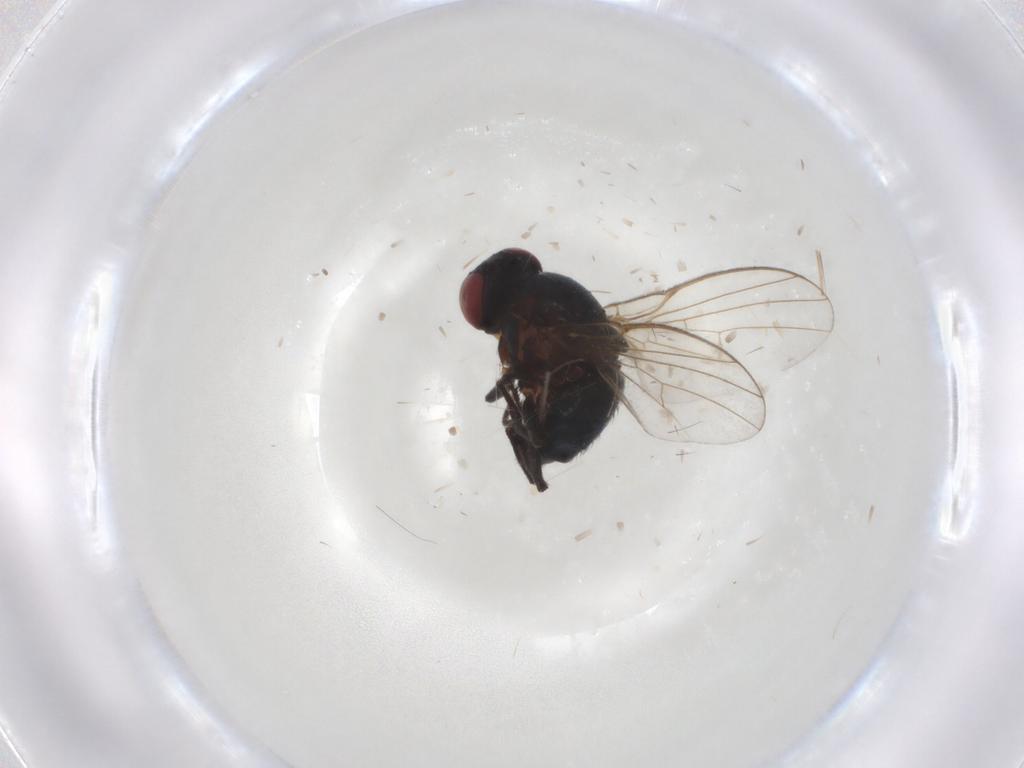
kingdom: Animalia
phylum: Arthropoda
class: Insecta
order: Diptera
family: Agromyzidae
